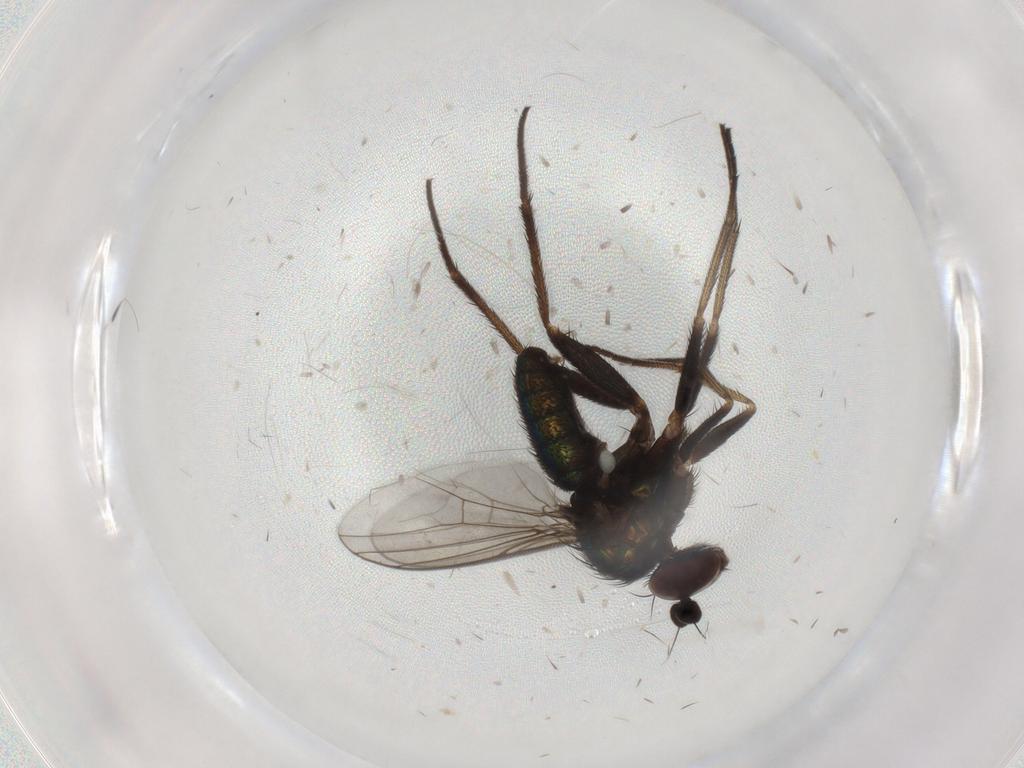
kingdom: Animalia
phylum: Arthropoda
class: Insecta
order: Diptera
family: Dolichopodidae
